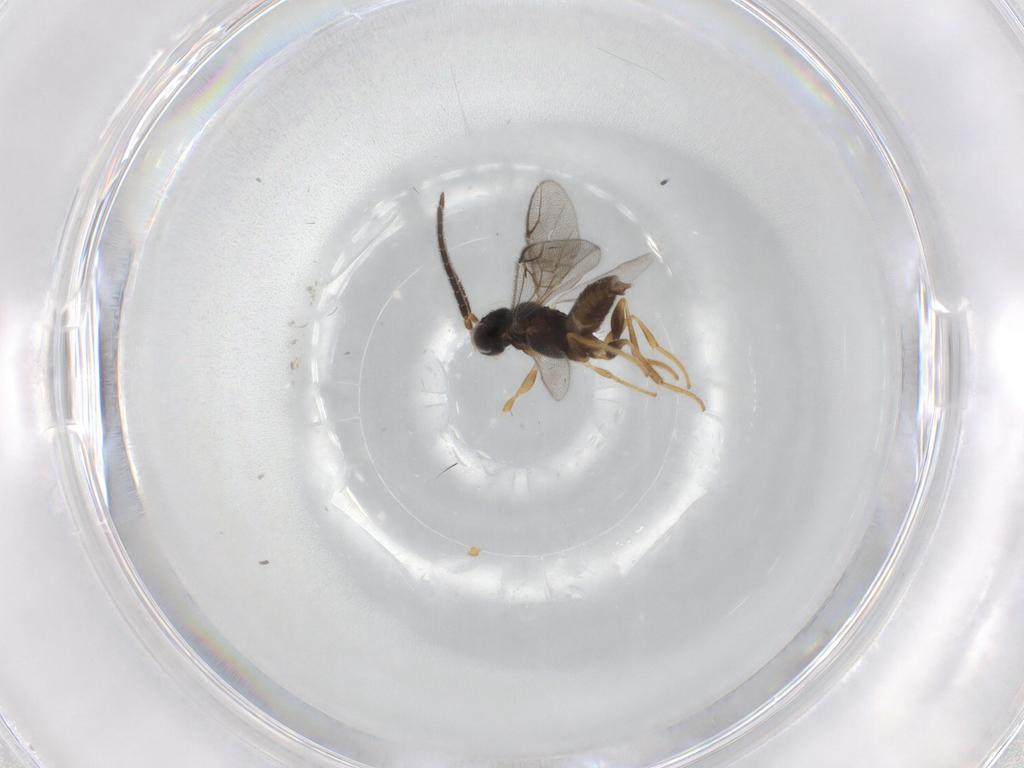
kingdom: Animalia
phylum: Arthropoda
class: Insecta
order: Hymenoptera
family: Dryinidae
